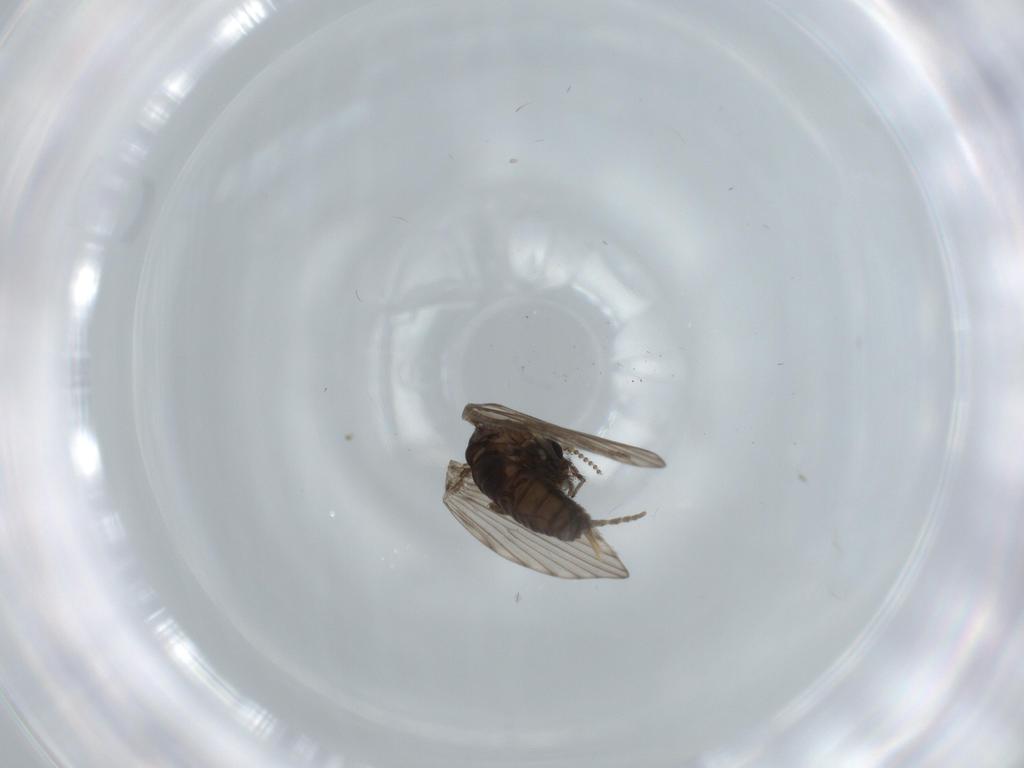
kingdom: Animalia
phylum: Arthropoda
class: Insecta
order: Diptera
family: Psychodidae
